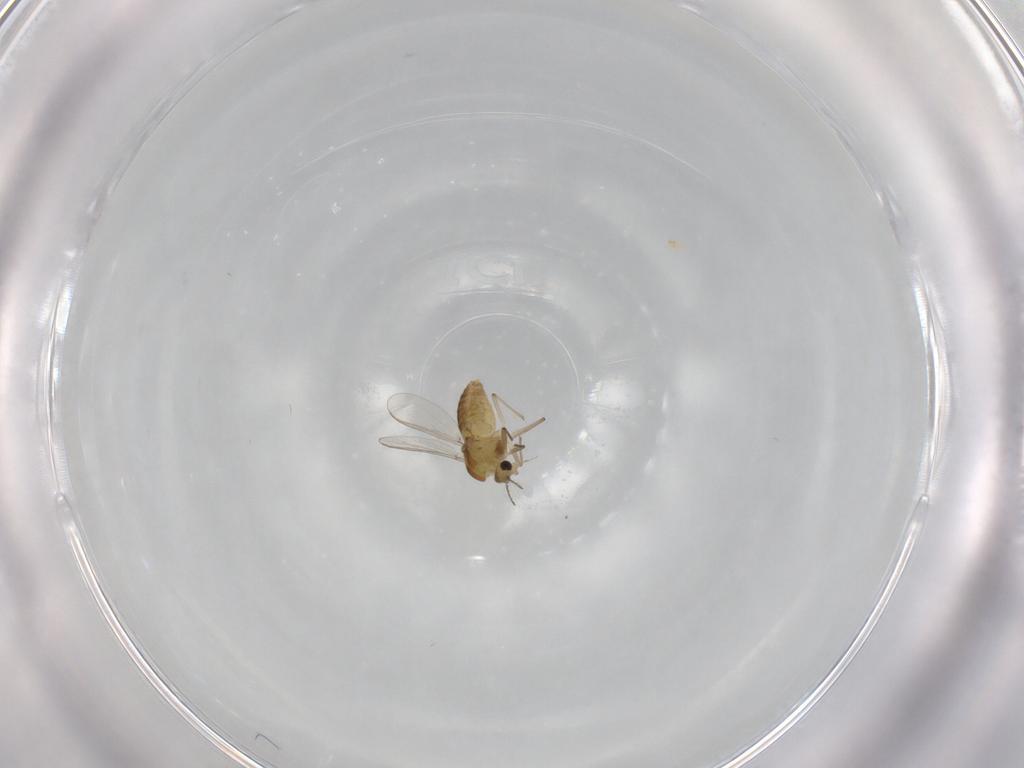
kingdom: Animalia
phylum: Arthropoda
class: Insecta
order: Diptera
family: Chironomidae
